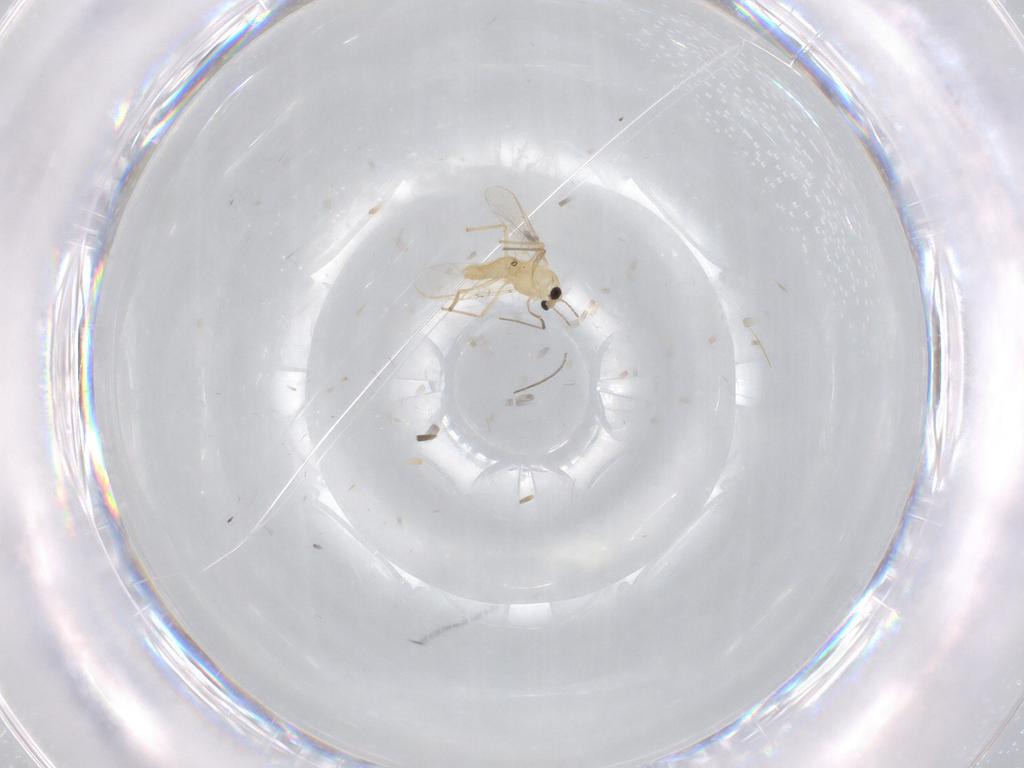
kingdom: Animalia
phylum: Arthropoda
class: Insecta
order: Diptera
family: Chironomidae
